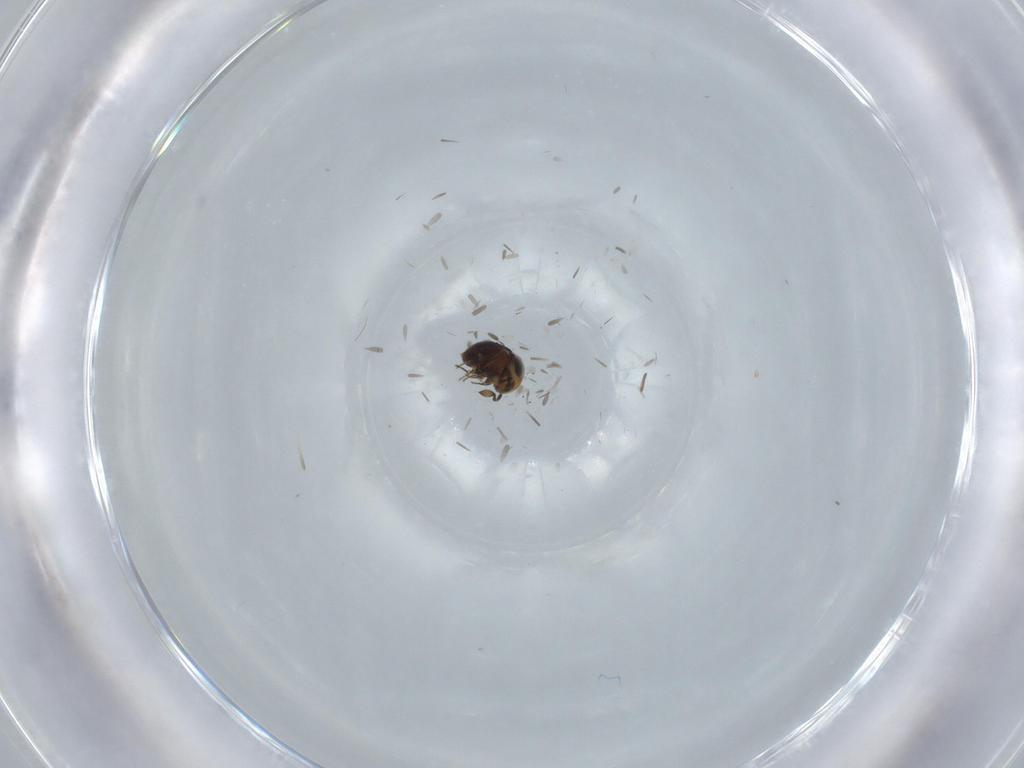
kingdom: Animalia
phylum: Arthropoda
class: Insecta
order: Hymenoptera
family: Scelionidae
